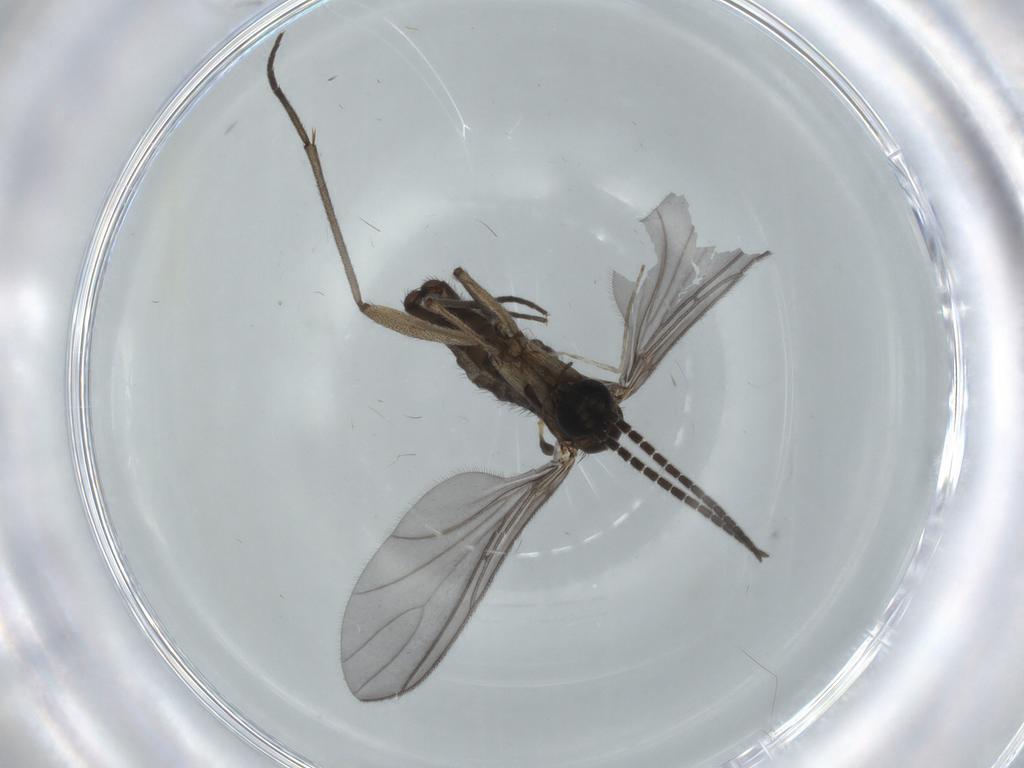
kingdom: Animalia
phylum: Arthropoda
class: Insecta
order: Diptera
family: Sciaridae
